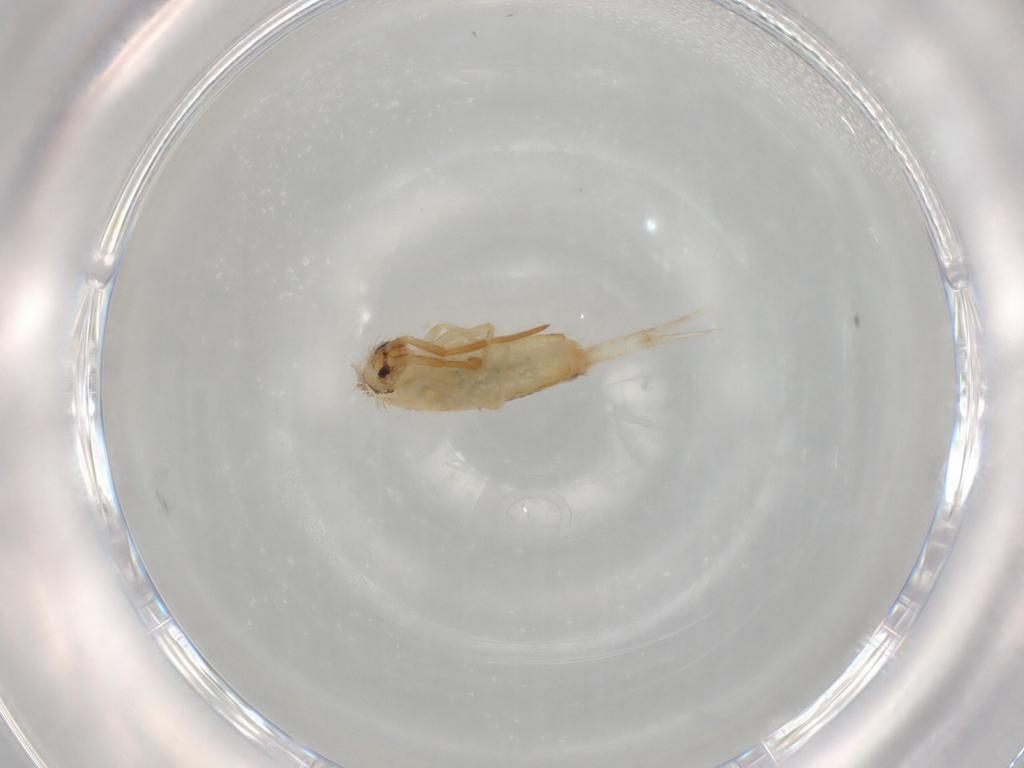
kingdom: Animalia
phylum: Arthropoda
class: Collembola
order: Entomobryomorpha
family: Entomobryidae
